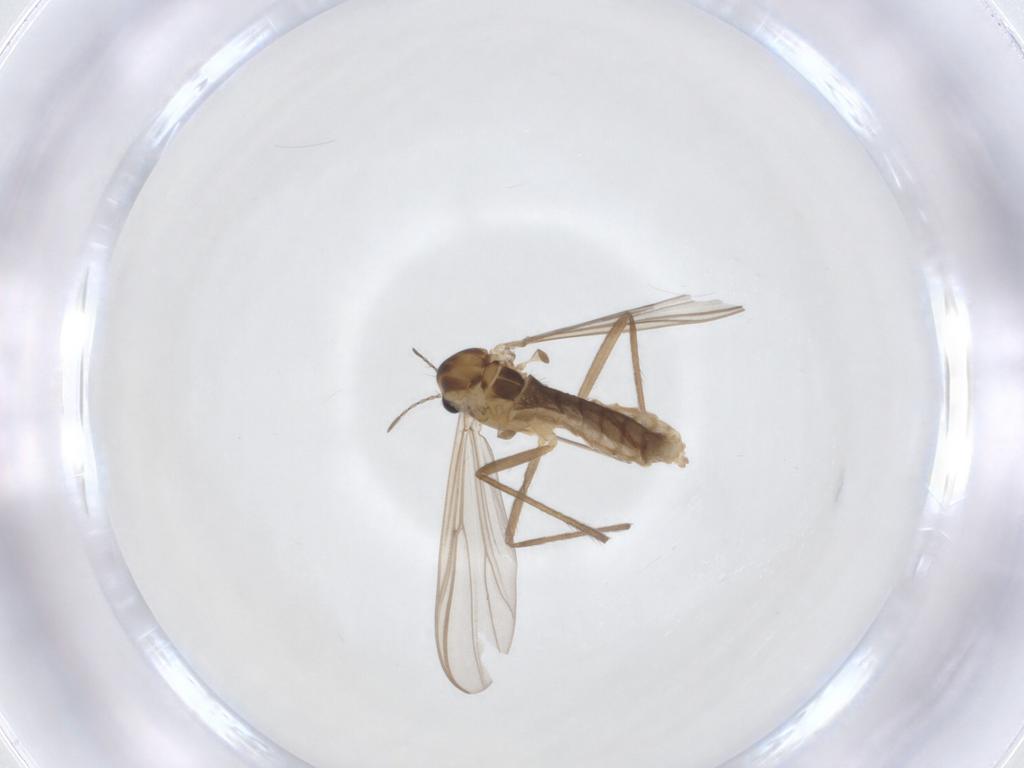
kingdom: Animalia
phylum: Arthropoda
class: Insecta
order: Diptera
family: Chironomidae
